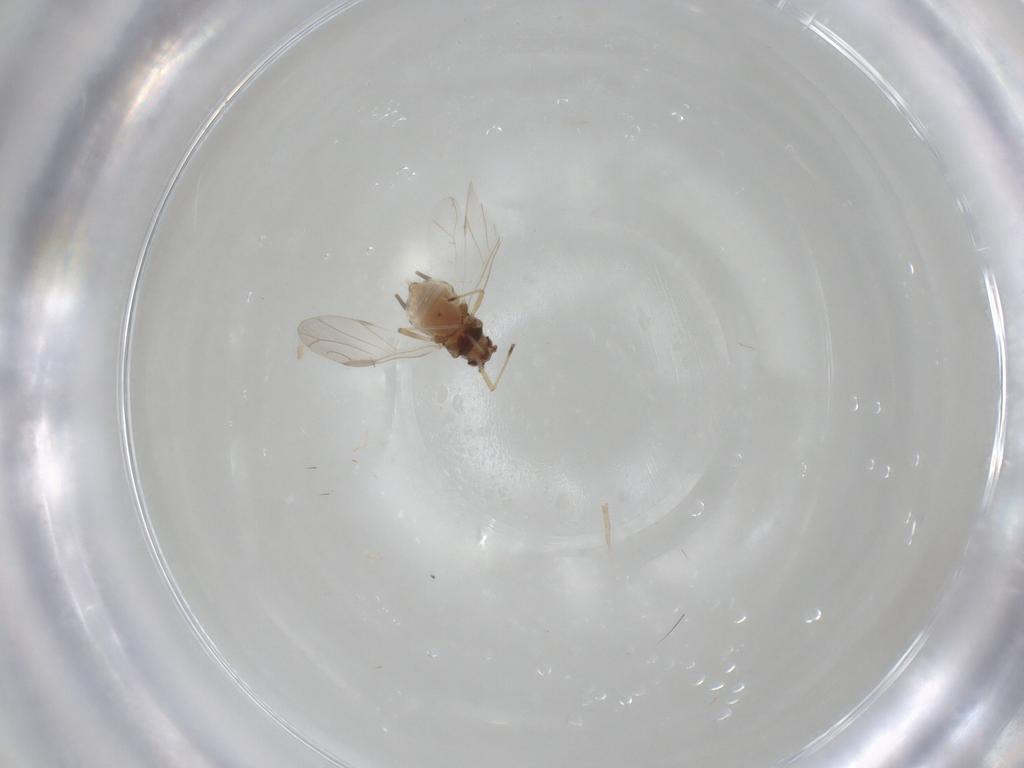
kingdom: Animalia
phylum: Arthropoda
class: Insecta
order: Hemiptera
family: Aphididae
